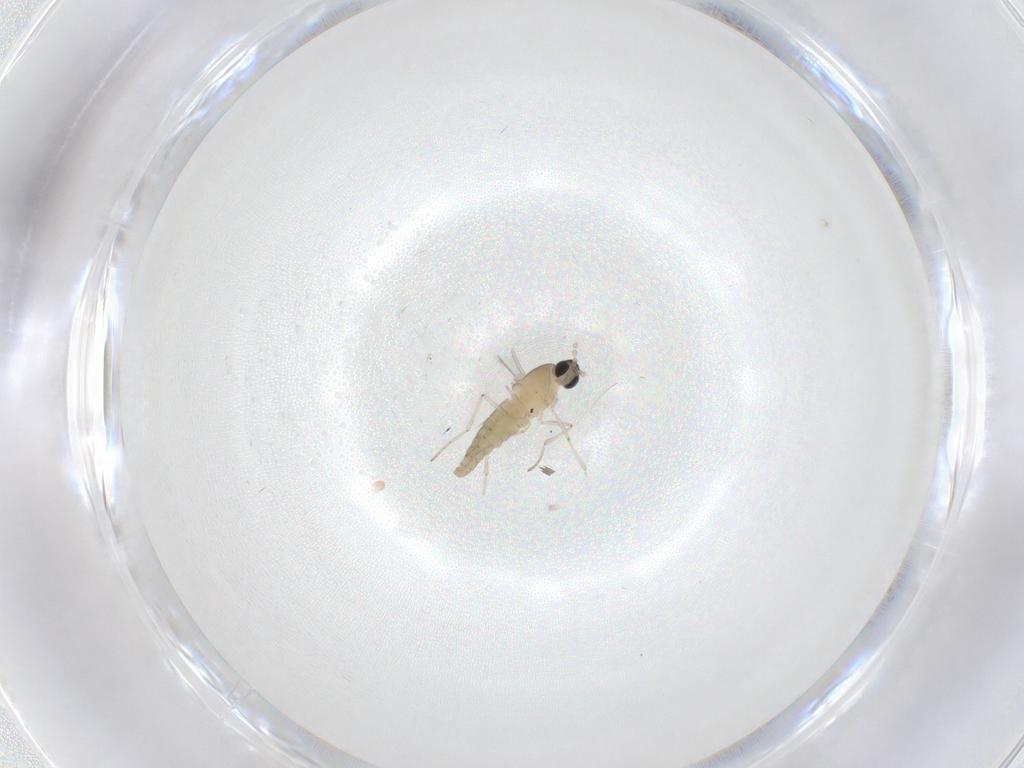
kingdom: Animalia
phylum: Arthropoda
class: Insecta
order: Diptera
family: Cecidomyiidae
